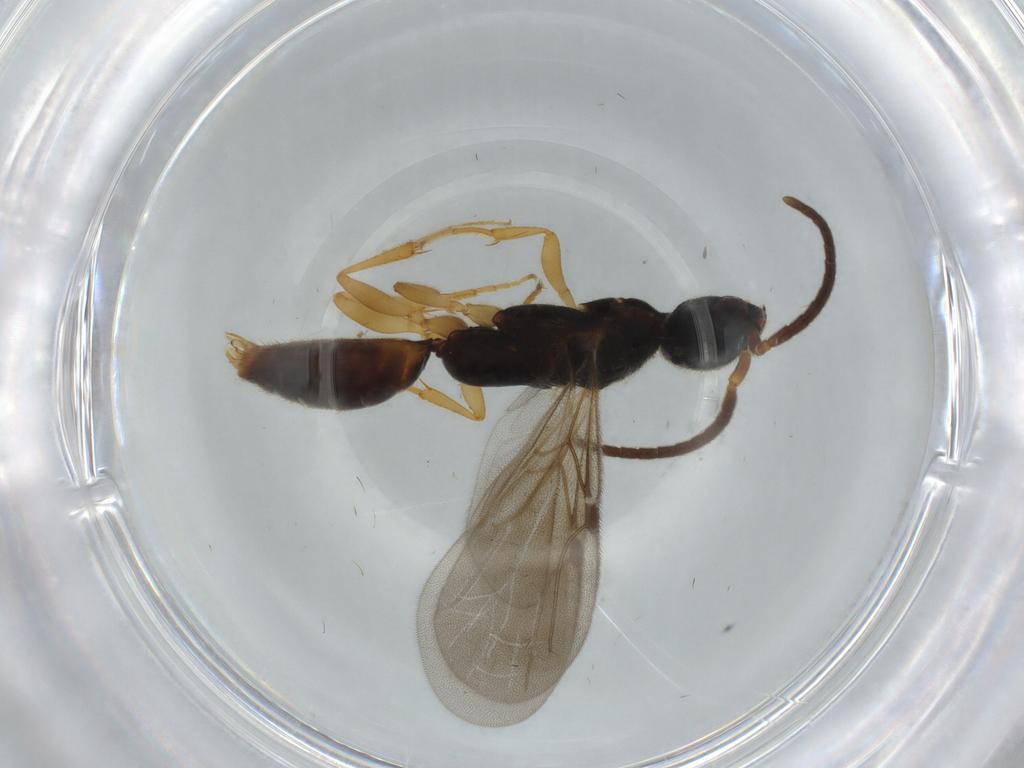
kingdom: Animalia
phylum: Arthropoda
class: Insecta
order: Hymenoptera
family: Bethylidae
